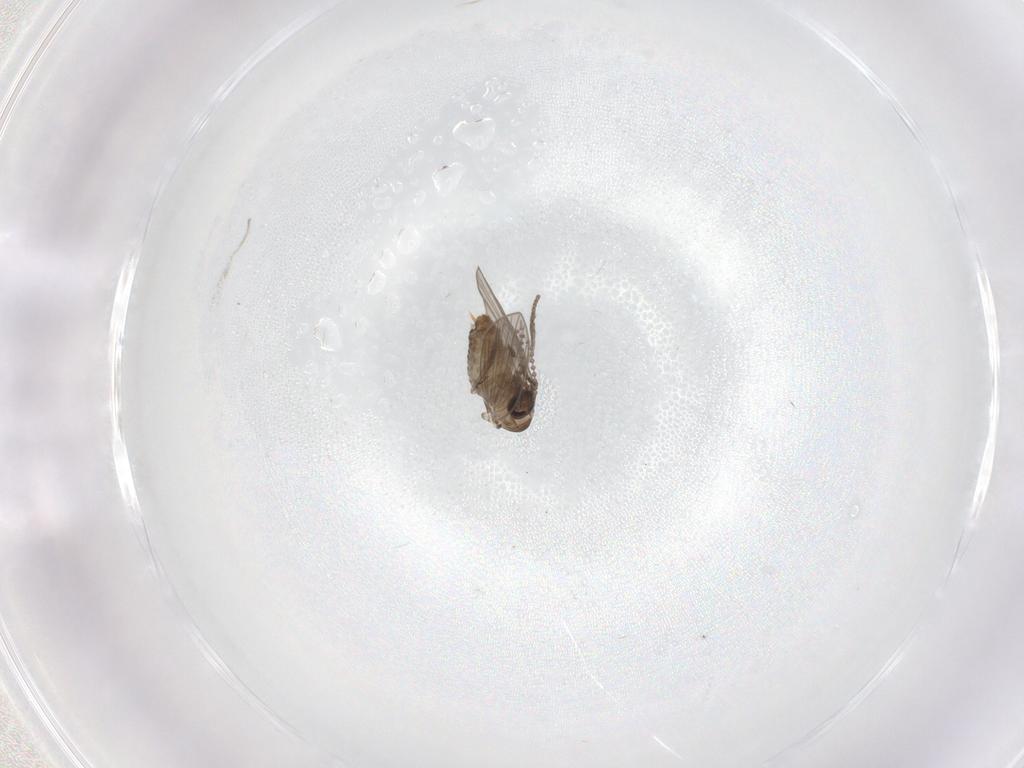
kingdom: Animalia
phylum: Arthropoda
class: Insecta
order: Diptera
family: Psychodidae
